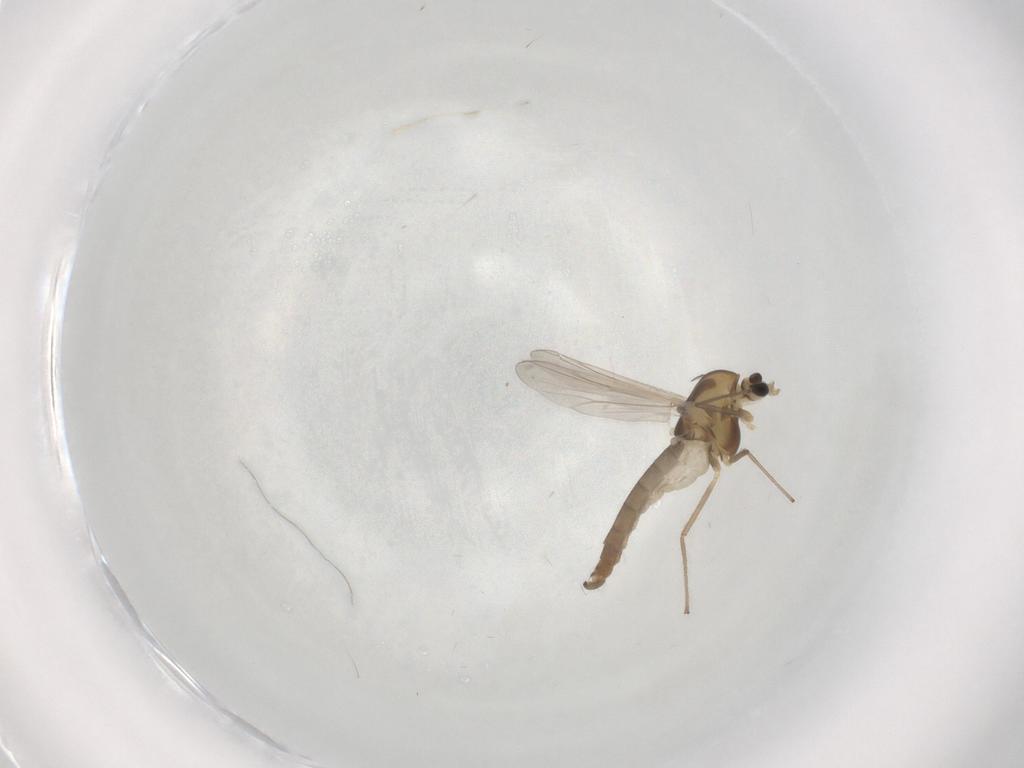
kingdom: Animalia
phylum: Arthropoda
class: Insecta
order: Diptera
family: Chironomidae
